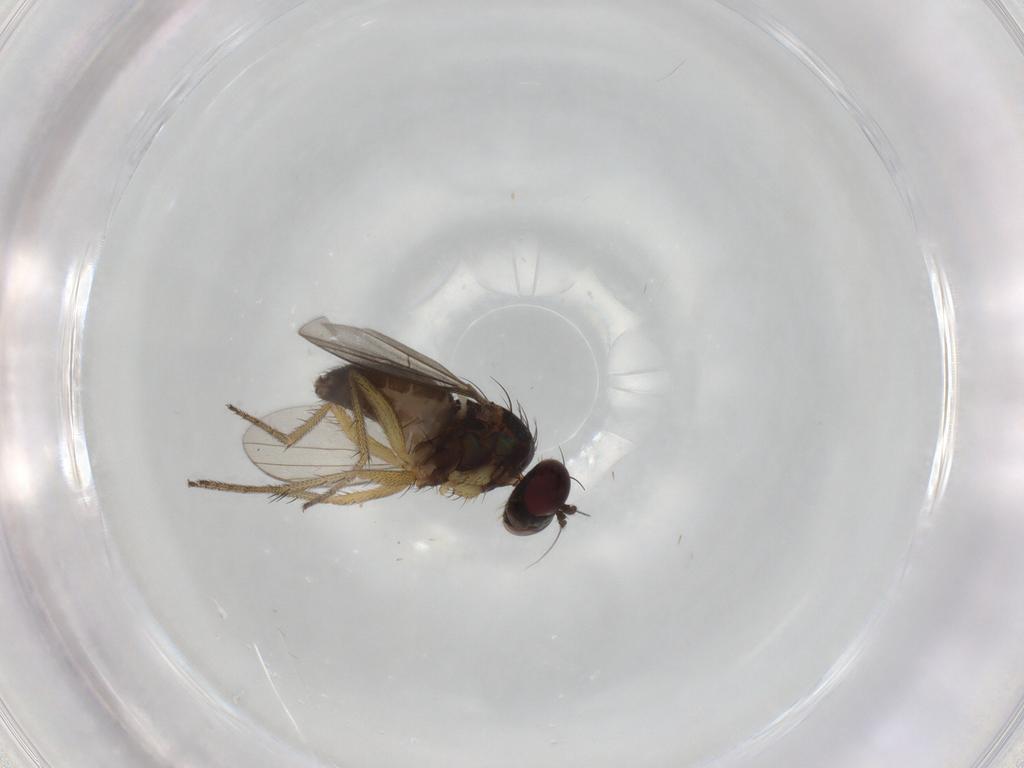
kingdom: Animalia
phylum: Arthropoda
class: Insecta
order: Diptera
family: Dolichopodidae
